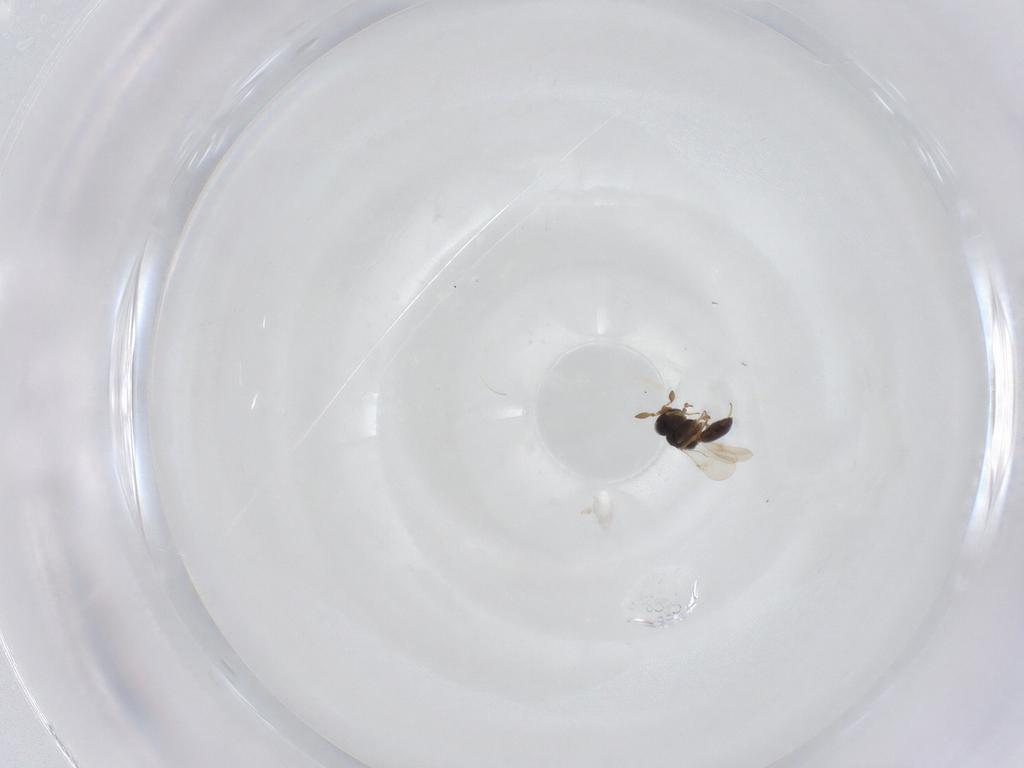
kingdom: Animalia
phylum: Arthropoda
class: Insecta
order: Hymenoptera
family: Scelionidae
